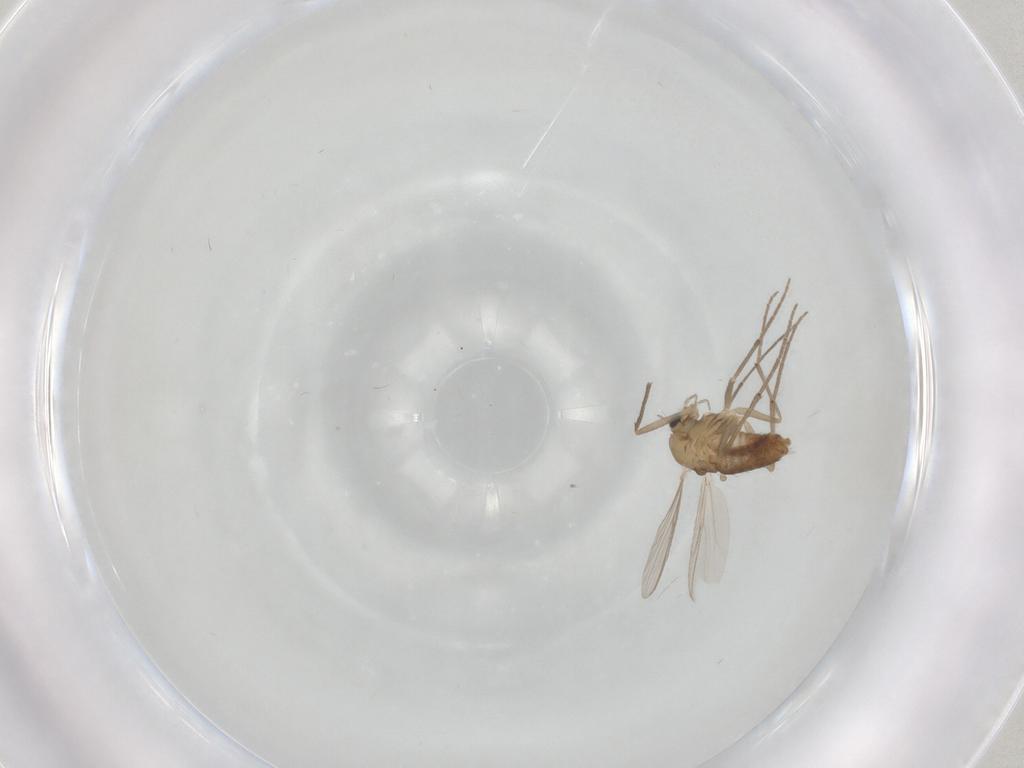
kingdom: Animalia
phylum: Arthropoda
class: Insecta
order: Diptera
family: Chironomidae
